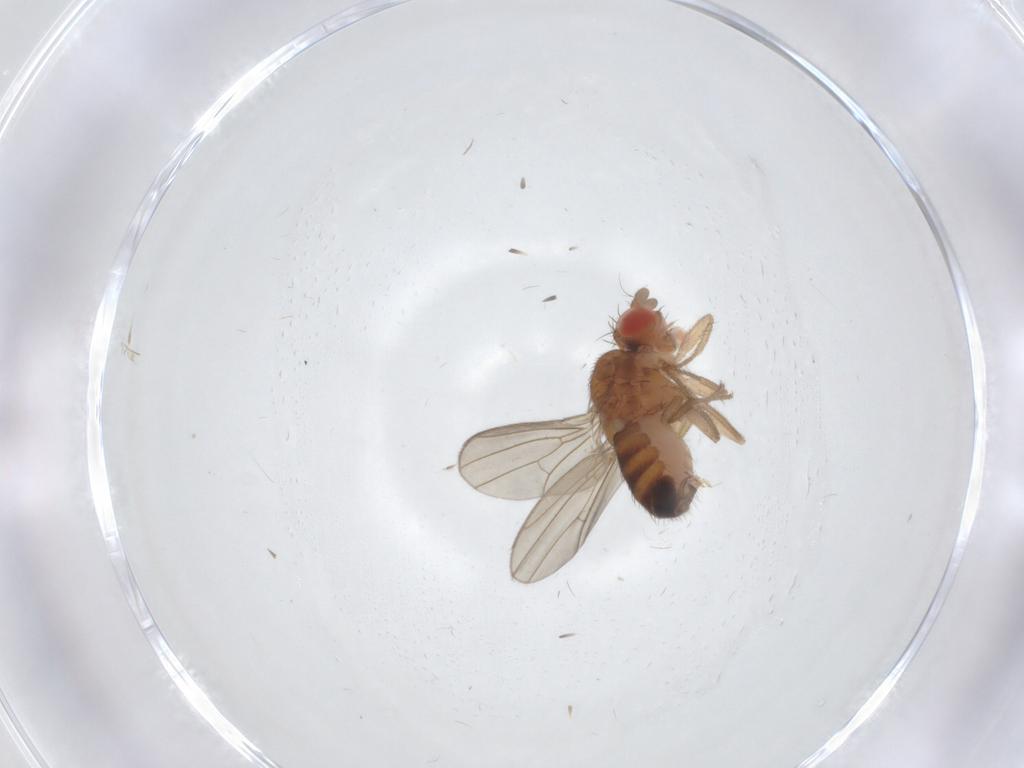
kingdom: Animalia
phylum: Arthropoda
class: Insecta
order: Diptera
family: Drosophilidae
